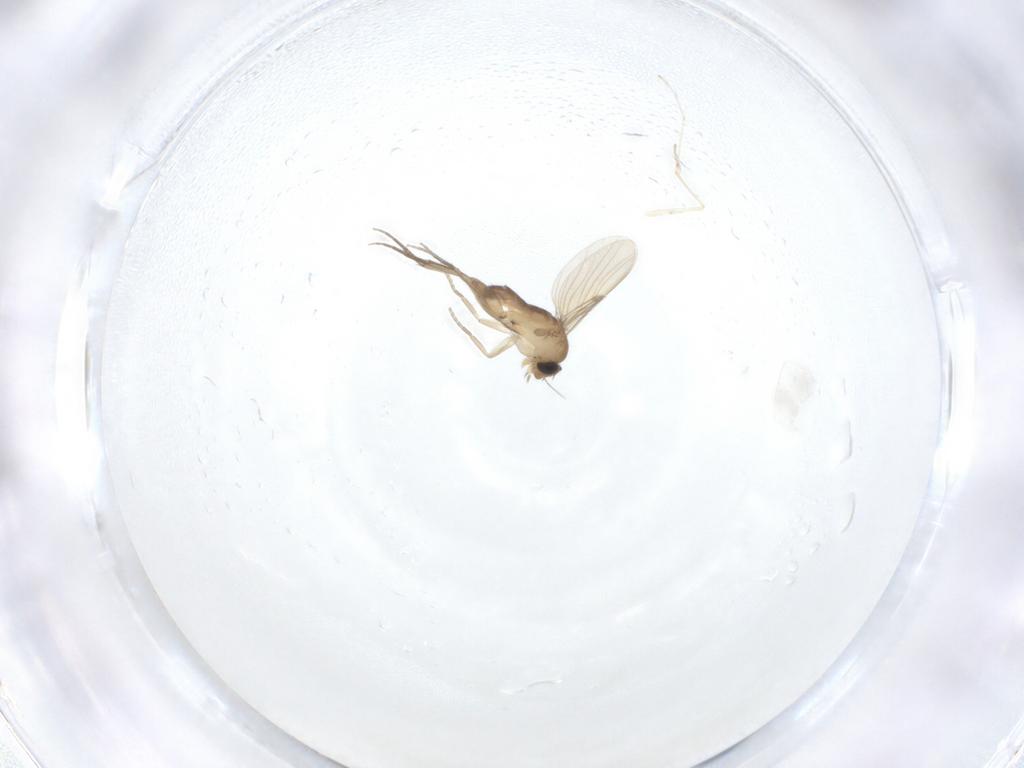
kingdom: Animalia
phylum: Arthropoda
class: Insecta
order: Diptera
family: Cecidomyiidae
